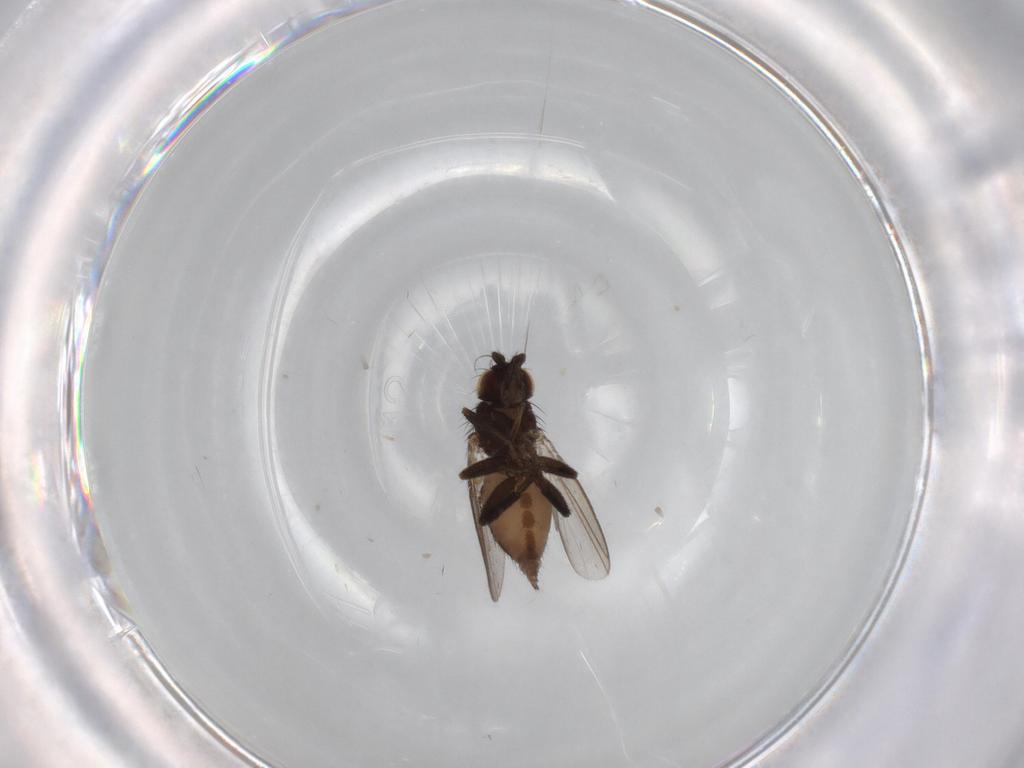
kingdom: Animalia
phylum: Arthropoda
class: Insecta
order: Diptera
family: Dolichopodidae
